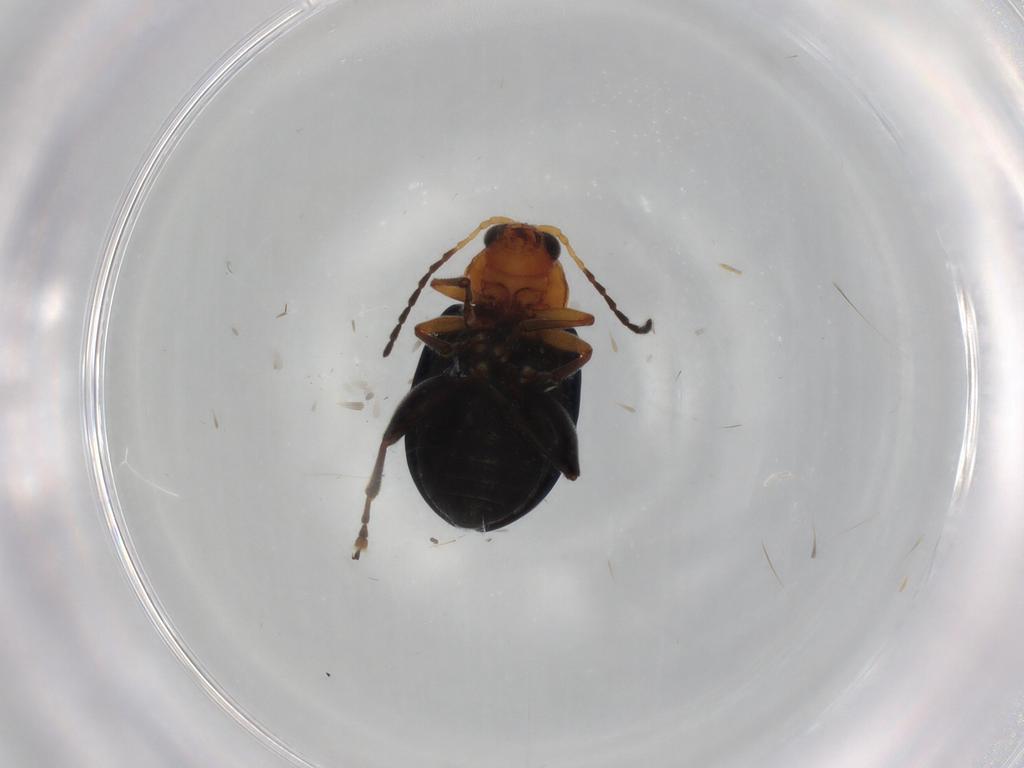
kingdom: Animalia
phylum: Arthropoda
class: Insecta
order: Coleoptera
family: Chrysomelidae
